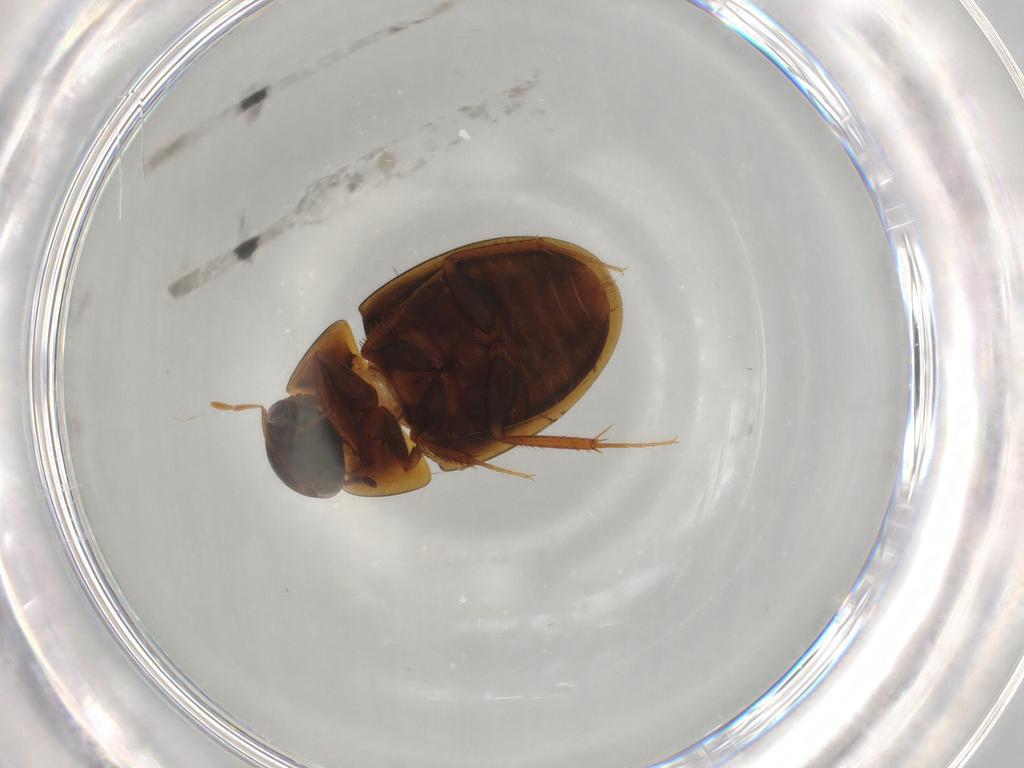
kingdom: Animalia
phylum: Arthropoda
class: Insecta
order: Coleoptera
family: Hydrophilidae
